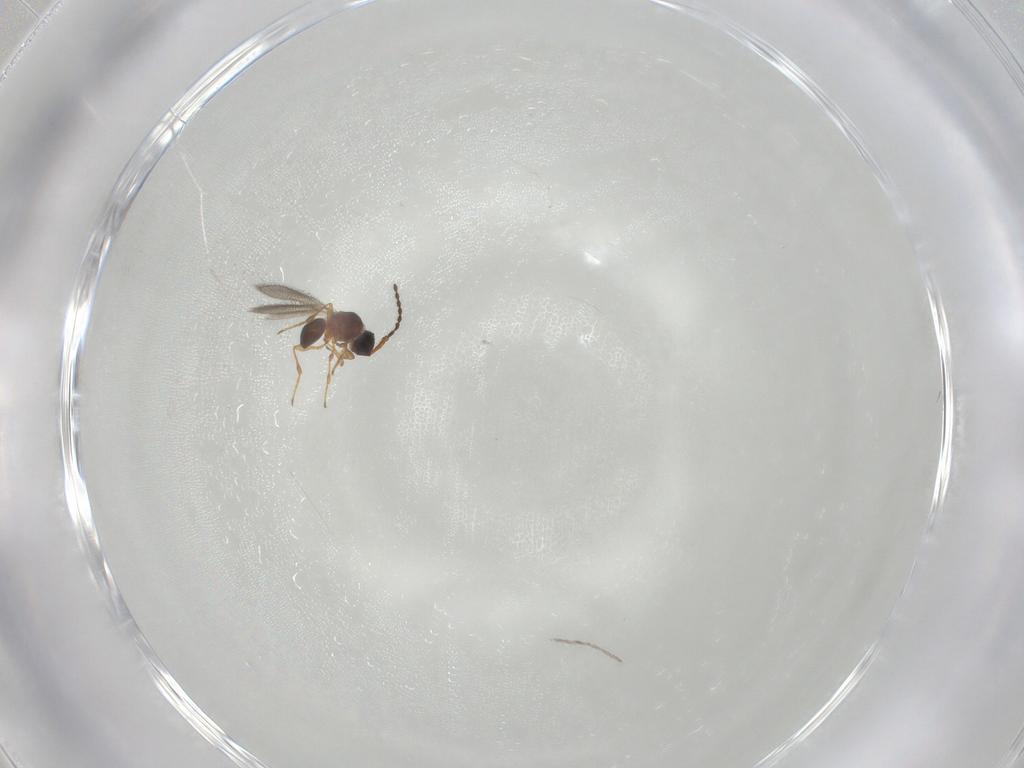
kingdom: Animalia
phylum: Arthropoda
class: Insecta
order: Hymenoptera
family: Diapriidae
